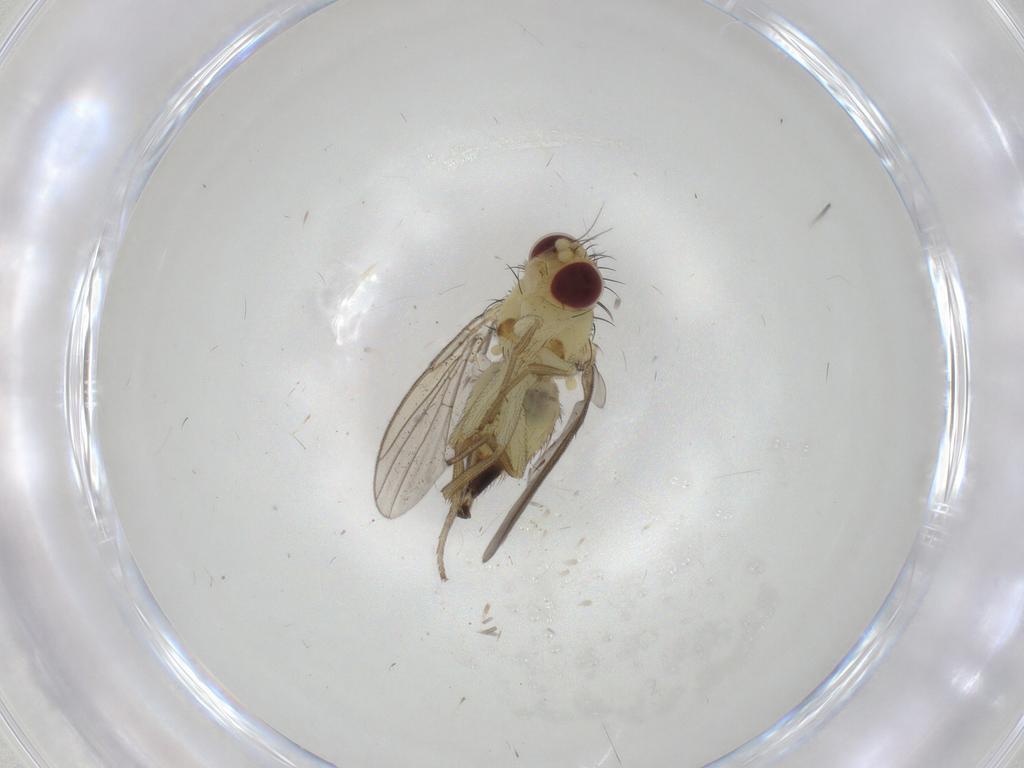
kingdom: Animalia
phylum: Arthropoda
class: Insecta
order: Diptera
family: Agromyzidae
